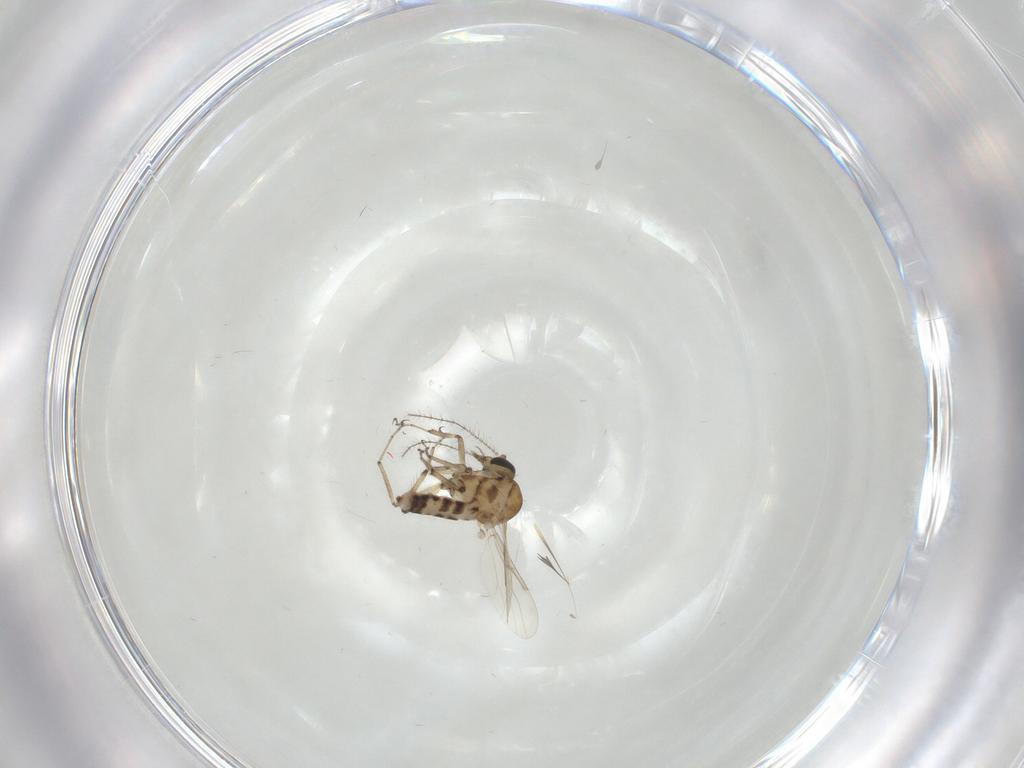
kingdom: Animalia
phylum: Arthropoda
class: Insecta
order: Diptera
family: Ceratopogonidae
